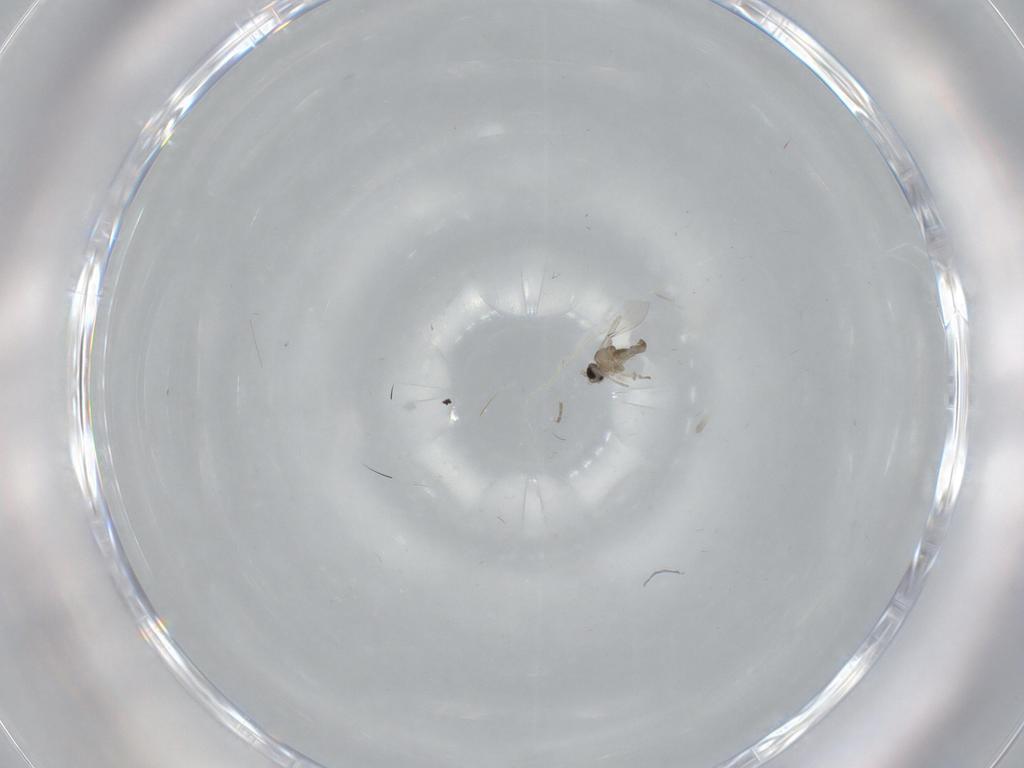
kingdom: Animalia
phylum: Arthropoda
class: Insecta
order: Diptera
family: Cecidomyiidae
